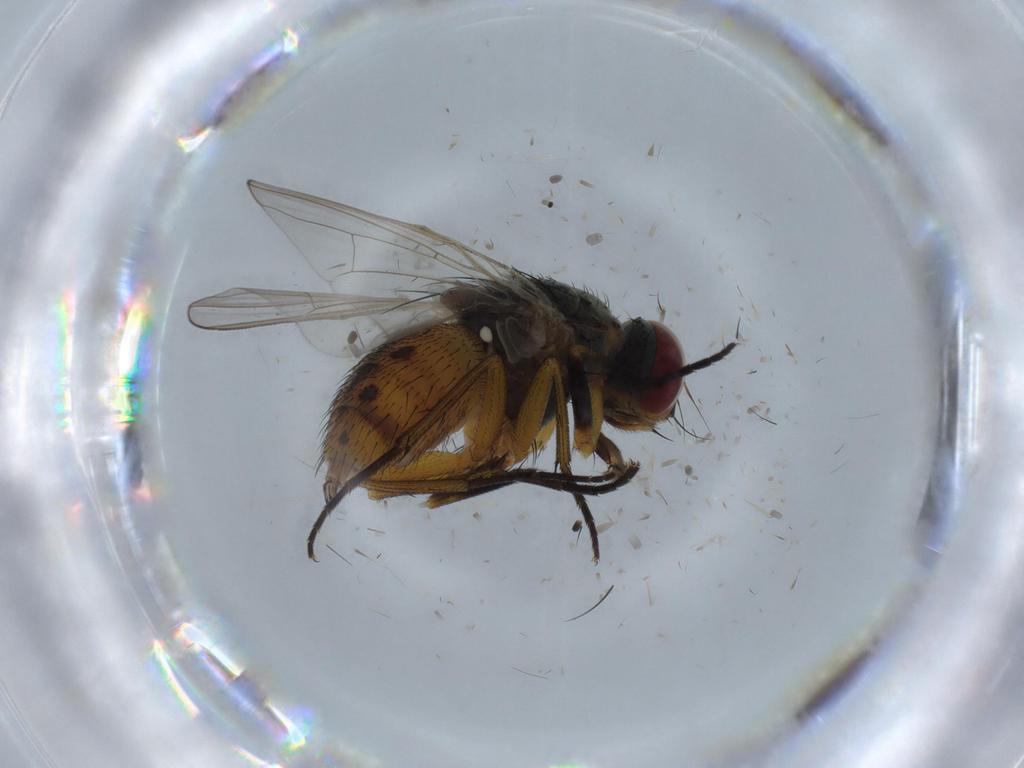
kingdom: Animalia
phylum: Arthropoda
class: Insecta
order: Diptera
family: Muscidae
